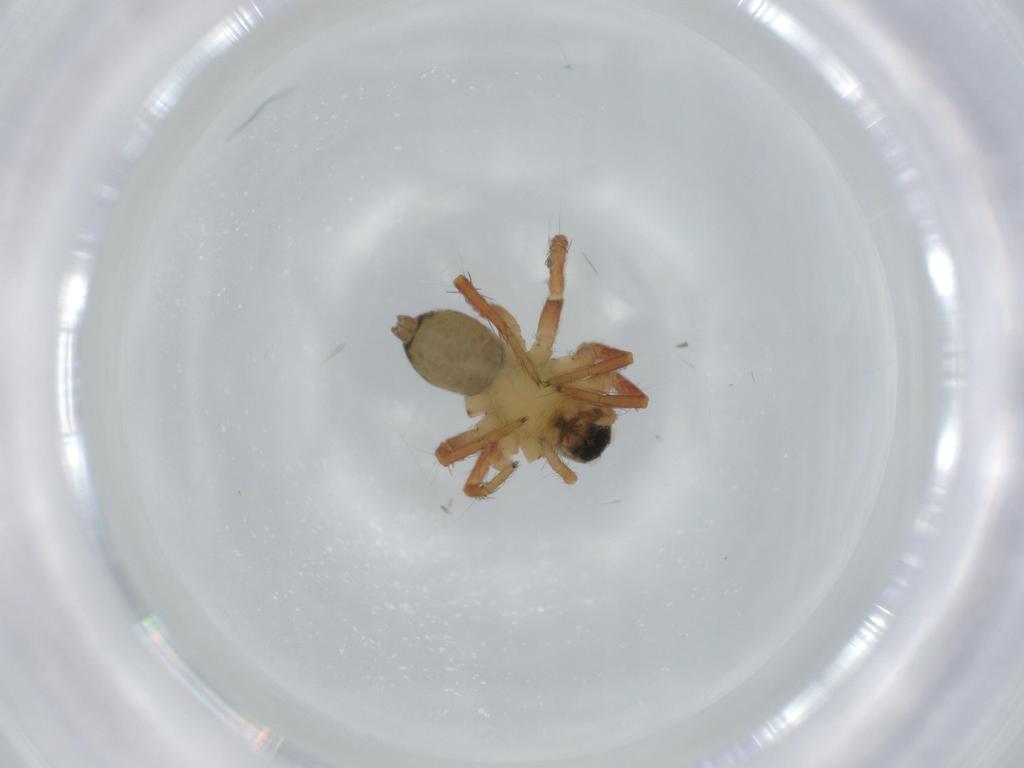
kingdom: Animalia
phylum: Arthropoda
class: Arachnida
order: Araneae
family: Lycosidae
